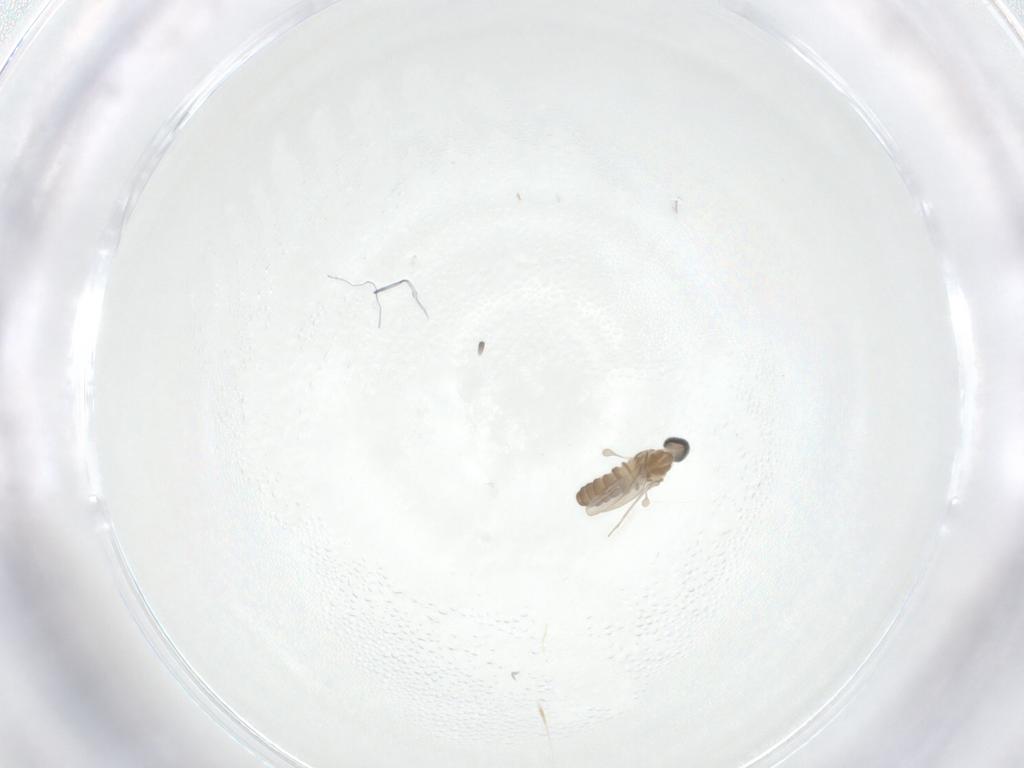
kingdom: Animalia
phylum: Arthropoda
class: Insecta
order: Diptera
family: Cecidomyiidae
